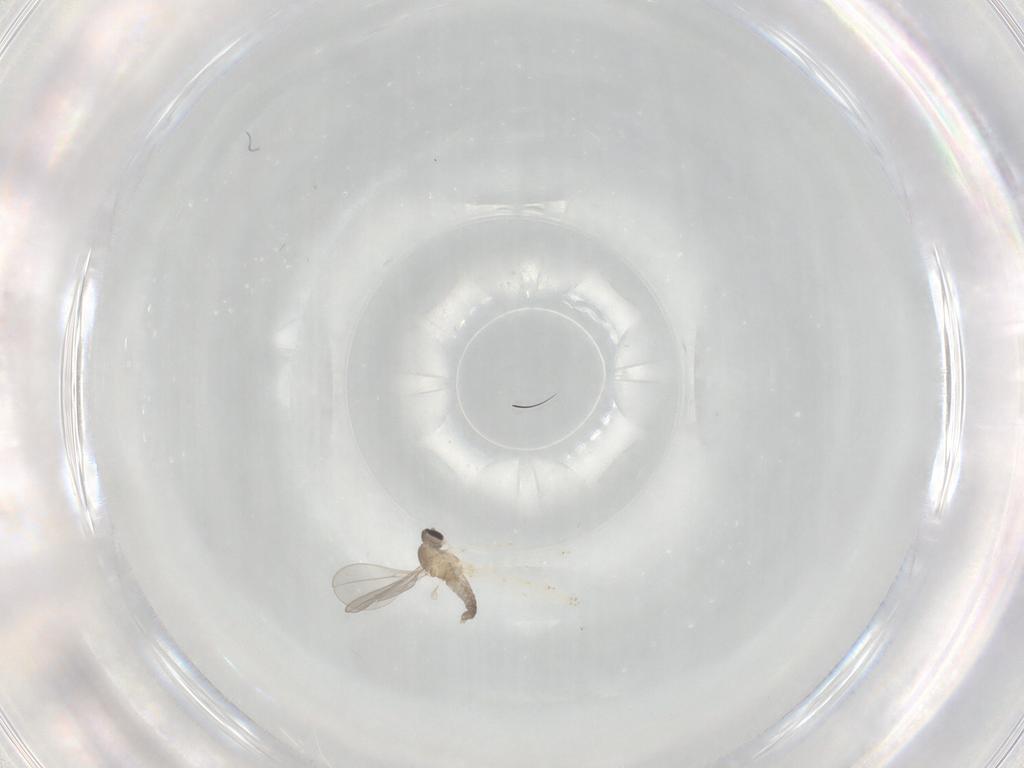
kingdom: Animalia
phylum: Arthropoda
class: Insecta
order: Diptera
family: Cecidomyiidae
